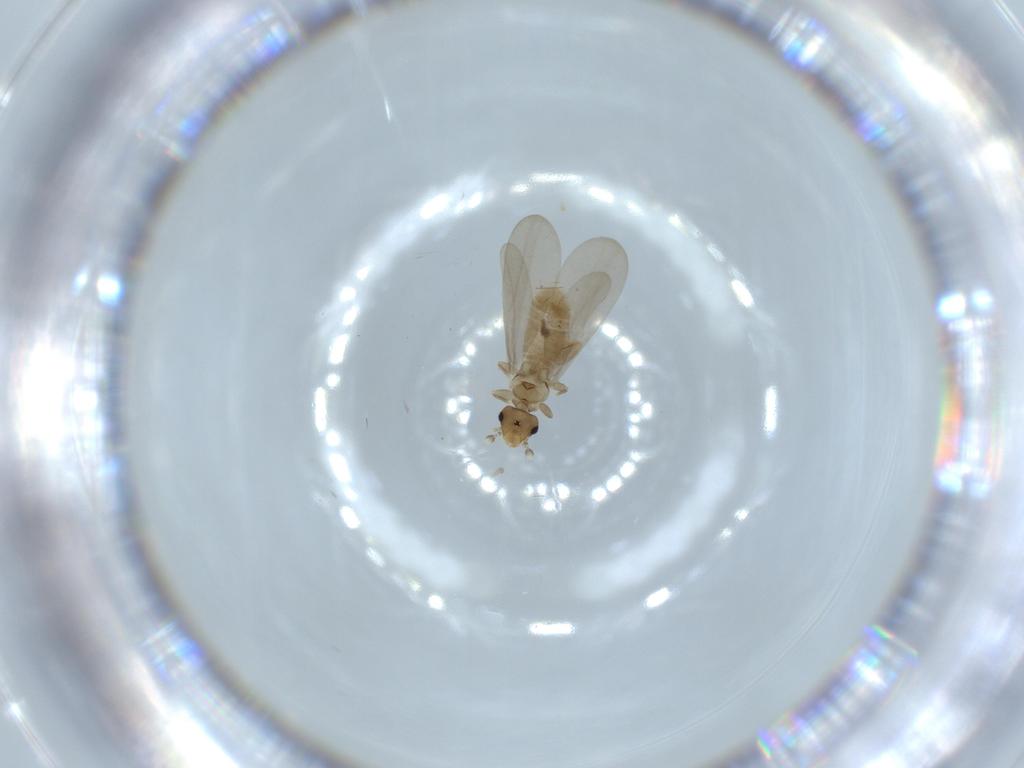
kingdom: Animalia
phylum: Arthropoda
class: Insecta
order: Psocodea
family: Liposcelididae
